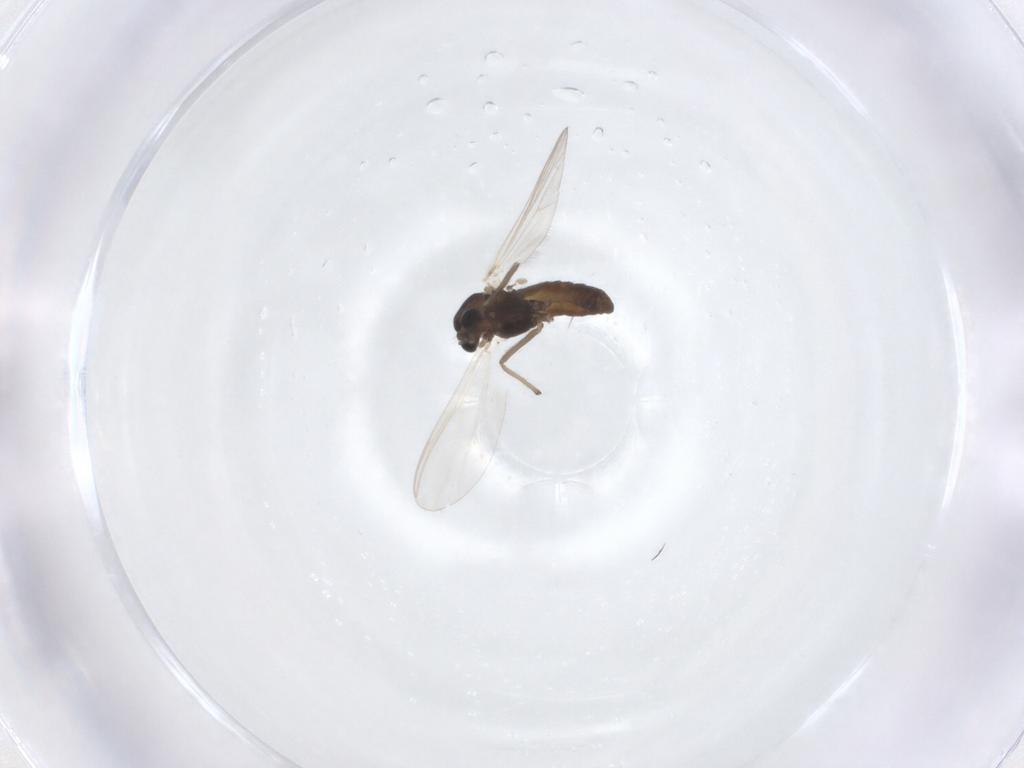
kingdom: Animalia
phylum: Arthropoda
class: Insecta
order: Diptera
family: Chironomidae
